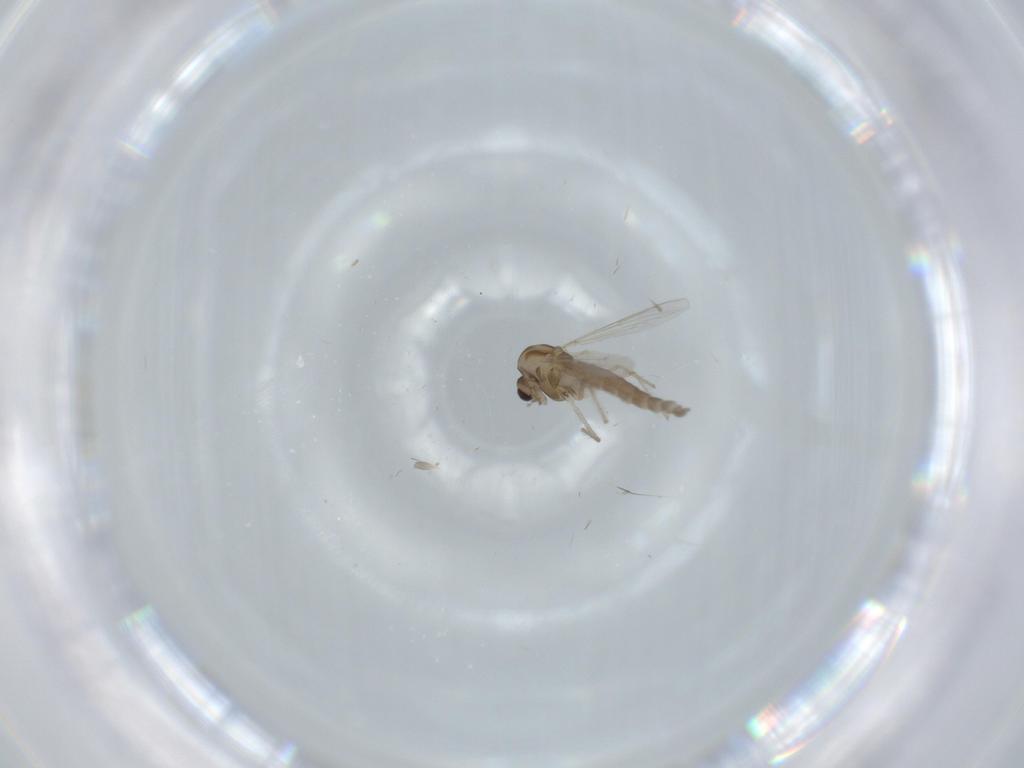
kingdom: Animalia
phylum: Arthropoda
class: Insecta
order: Diptera
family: Chironomidae
